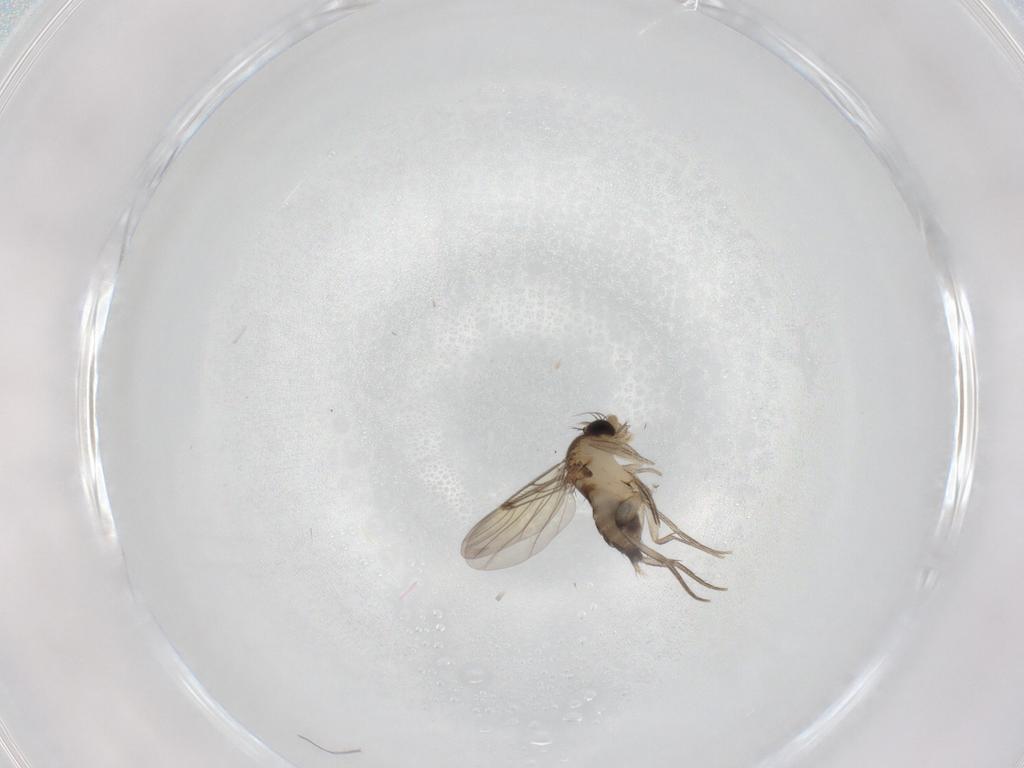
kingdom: Animalia
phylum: Arthropoda
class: Insecta
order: Diptera
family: Phoridae
